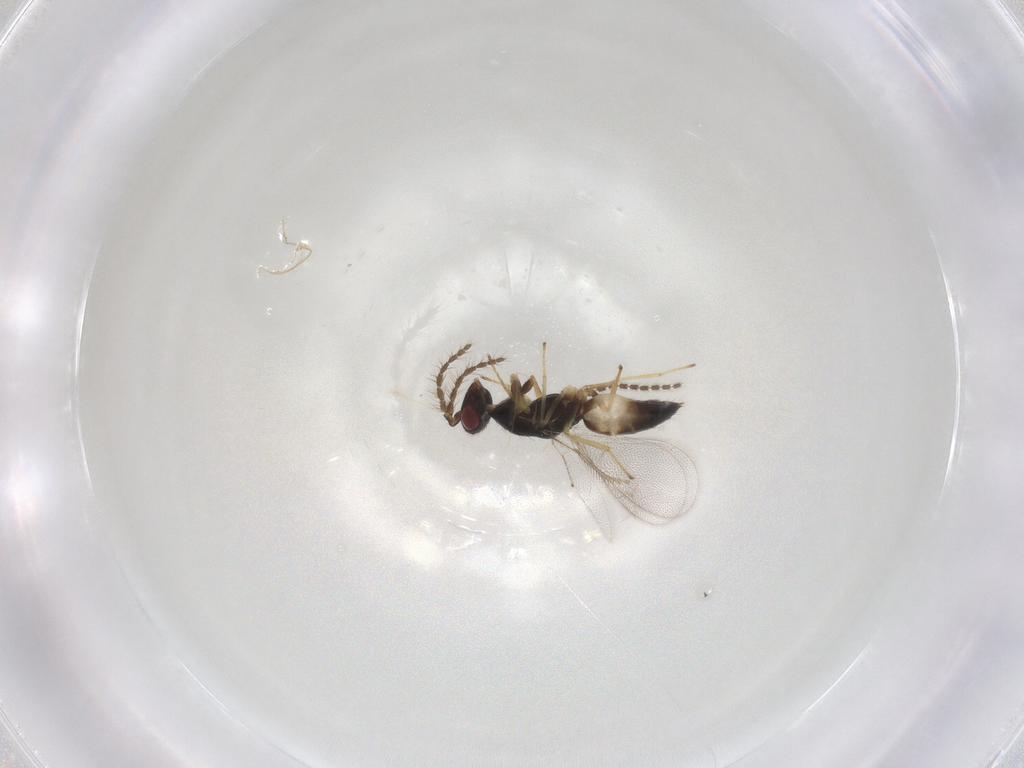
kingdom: Animalia
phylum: Arthropoda
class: Insecta
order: Hymenoptera
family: Eulophidae
